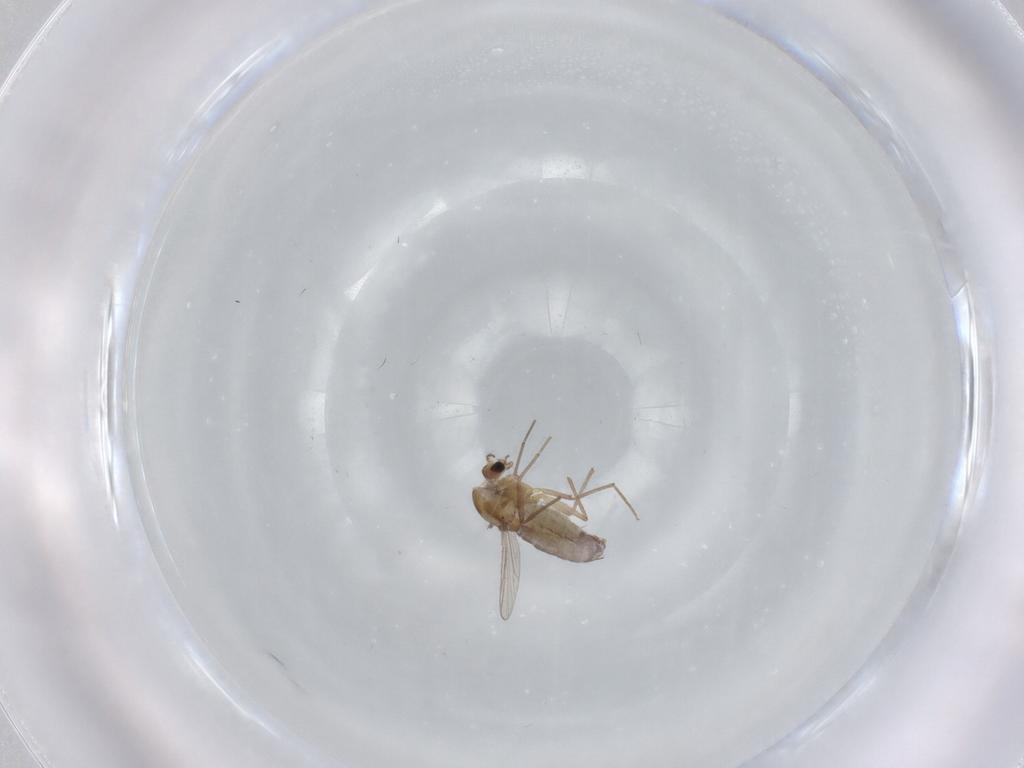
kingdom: Animalia
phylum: Arthropoda
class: Insecta
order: Diptera
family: Chironomidae
